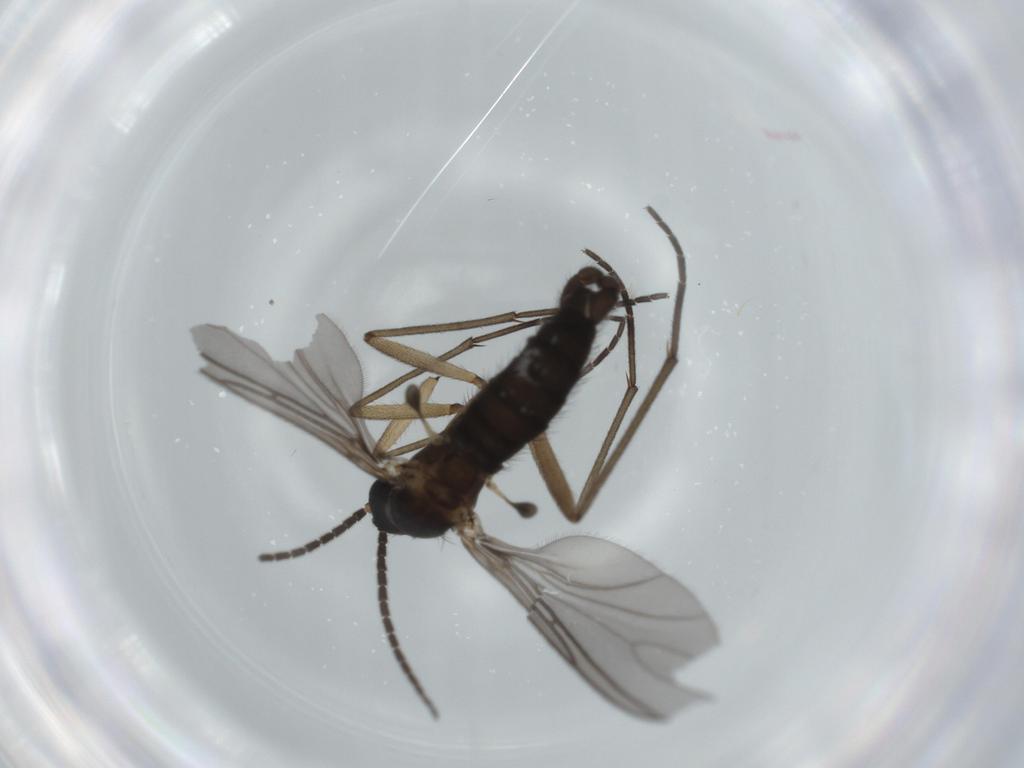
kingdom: Animalia
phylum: Arthropoda
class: Insecta
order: Diptera
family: Sciaridae
